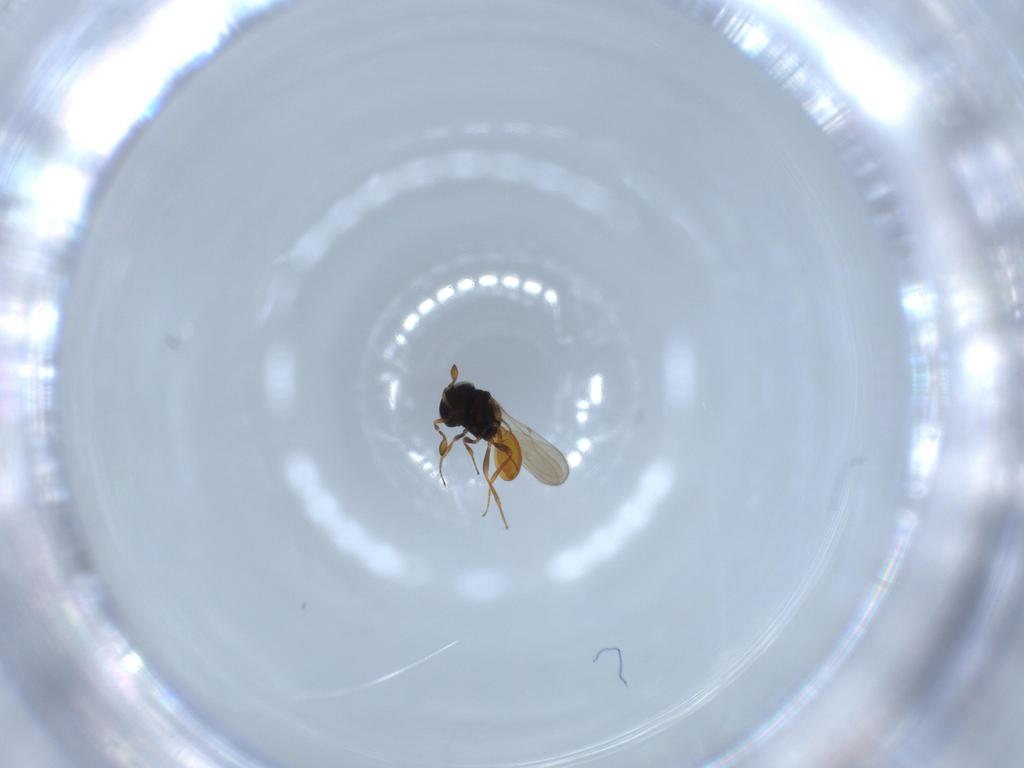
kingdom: Animalia
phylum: Arthropoda
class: Insecta
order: Hymenoptera
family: Scelionidae
